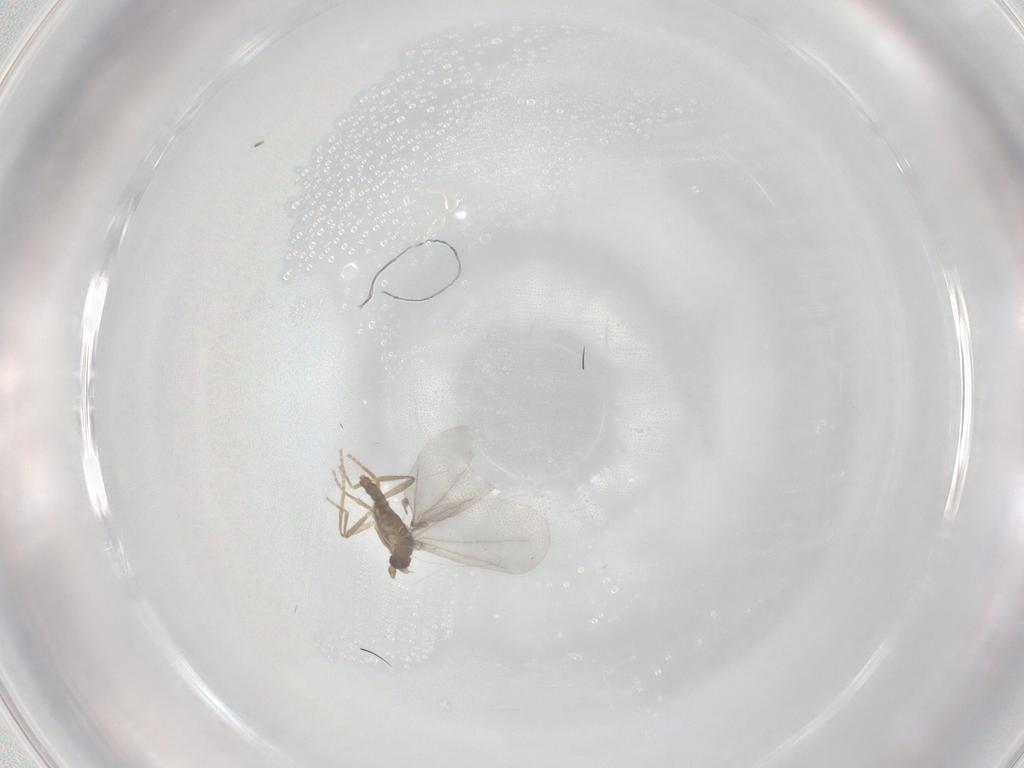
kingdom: Animalia
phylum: Arthropoda
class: Insecta
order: Diptera
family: Phoridae
